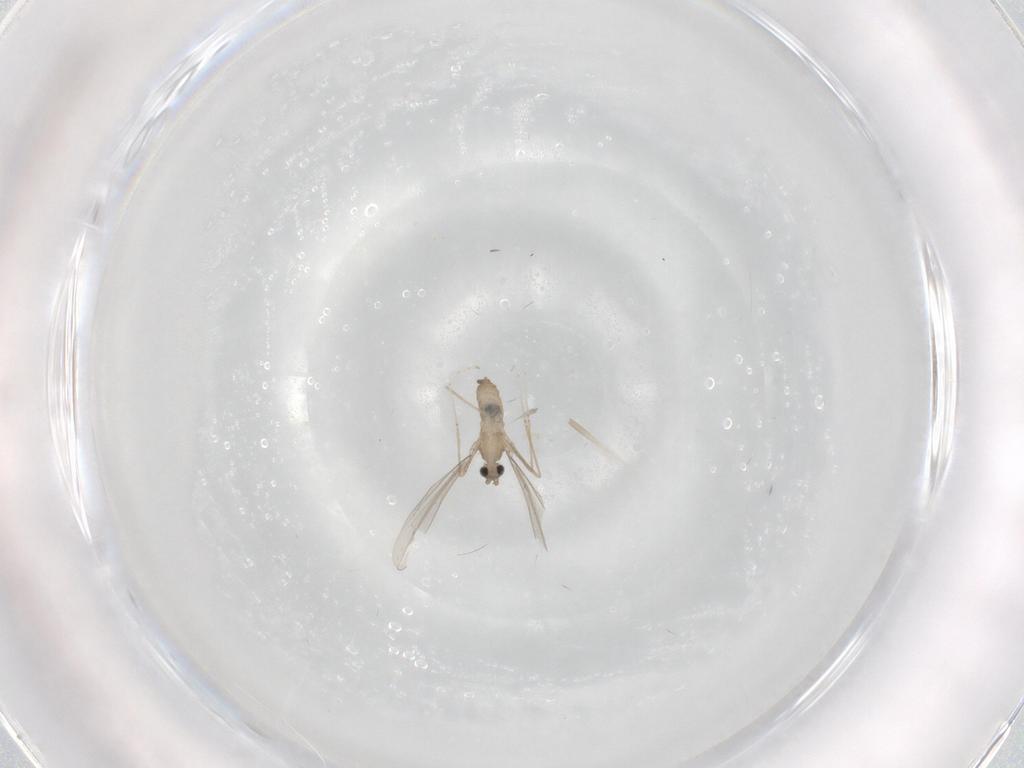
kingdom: Animalia
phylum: Arthropoda
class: Insecta
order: Diptera
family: Cecidomyiidae
